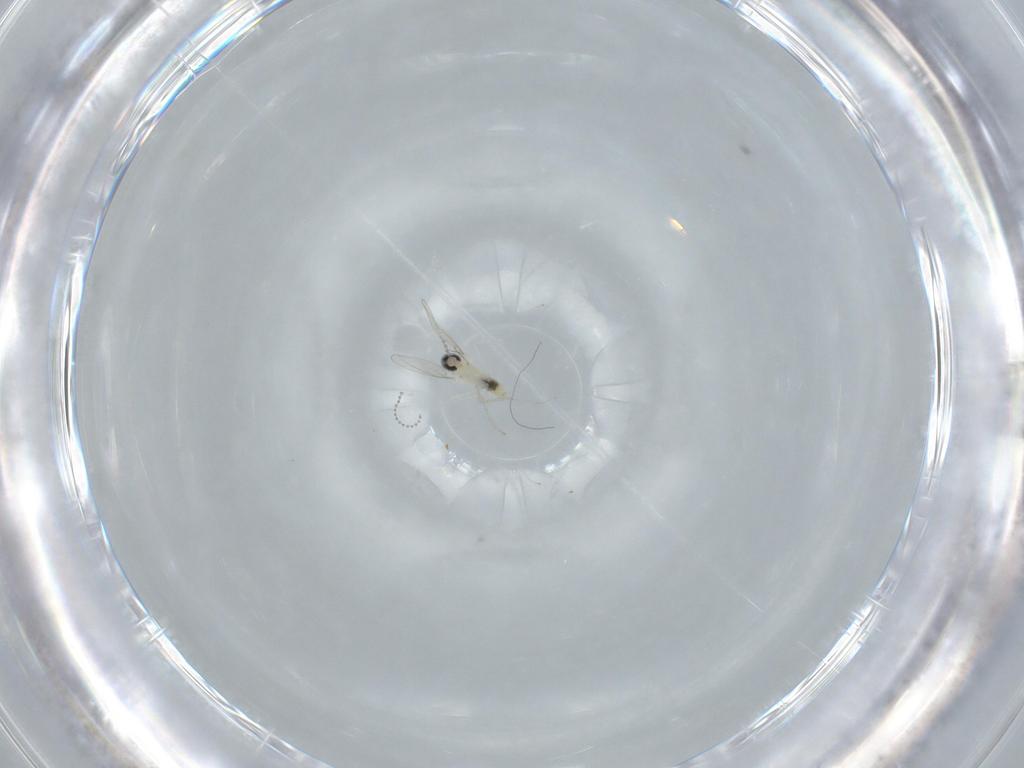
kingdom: Animalia
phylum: Arthropoda
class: Insecta
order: Diptera
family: Cecidomyiidae
